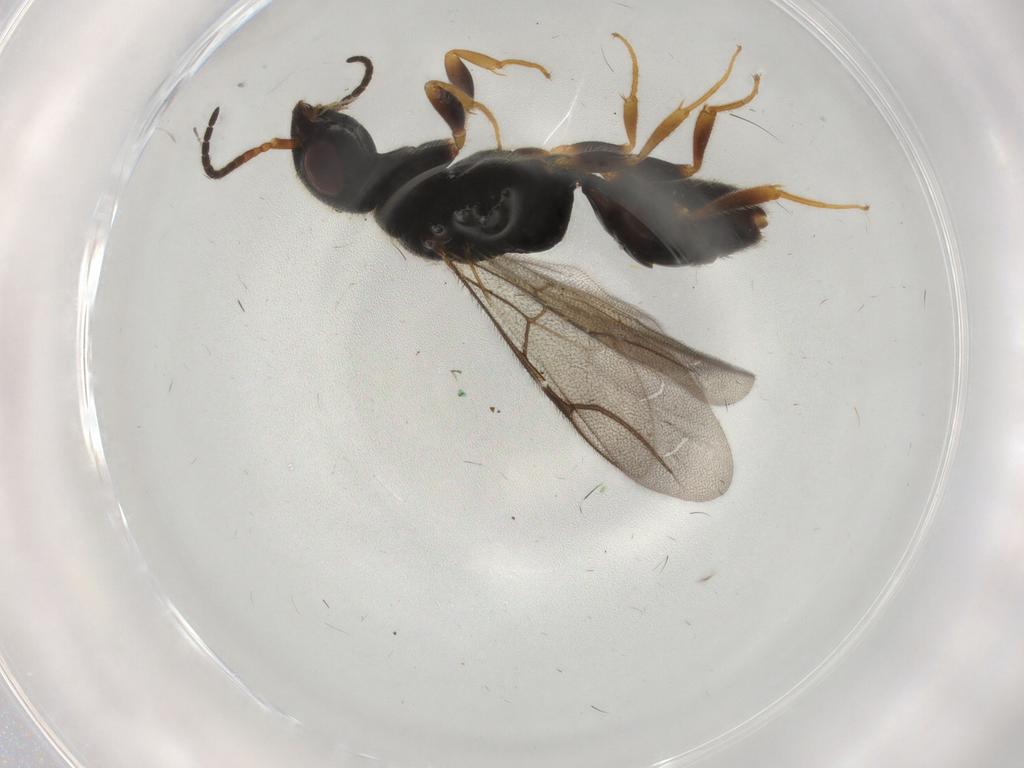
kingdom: Animalia
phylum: Arthropoda
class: Insecta
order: Hymenoptera
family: Bethylidae
